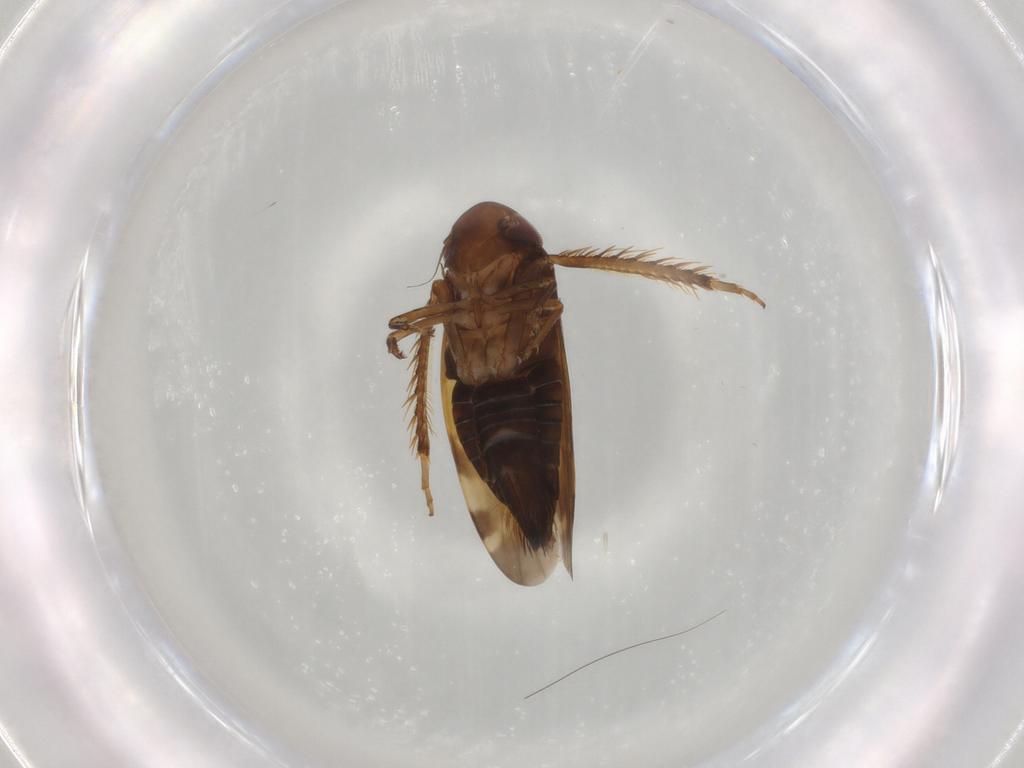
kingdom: Animalia
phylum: Arthropoda
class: Insecta
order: Hemiptera
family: Cicadellidae
